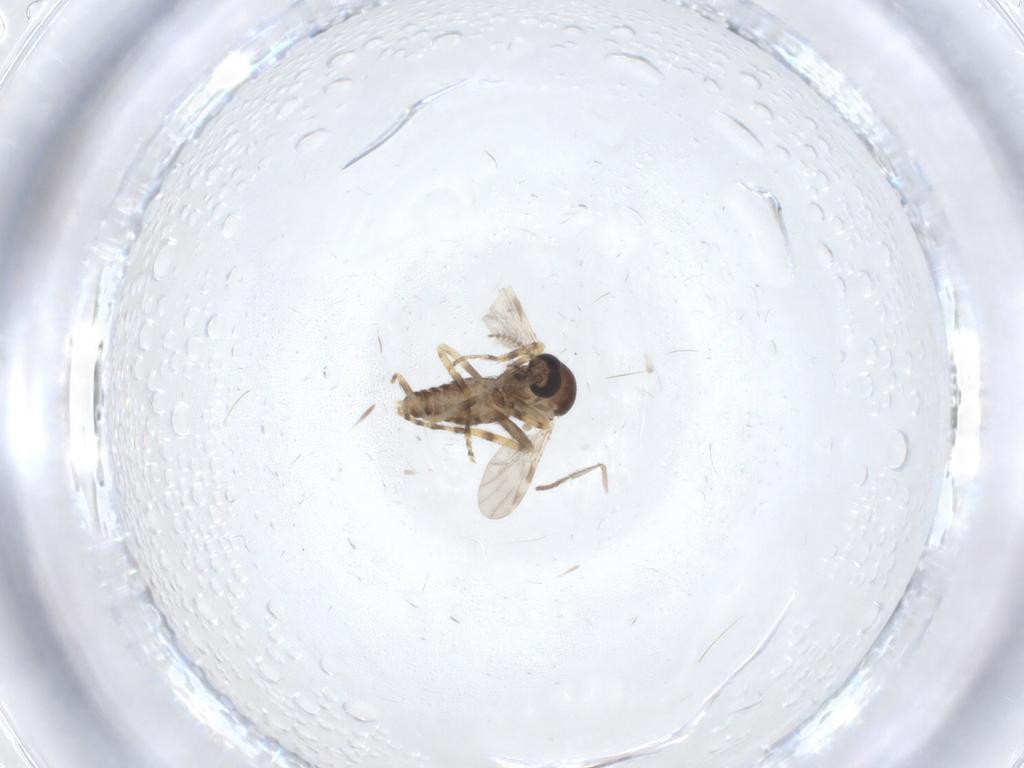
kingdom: Animalia
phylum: Arthropoda
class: Insecta
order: Diptera
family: Ceratopogonidae
